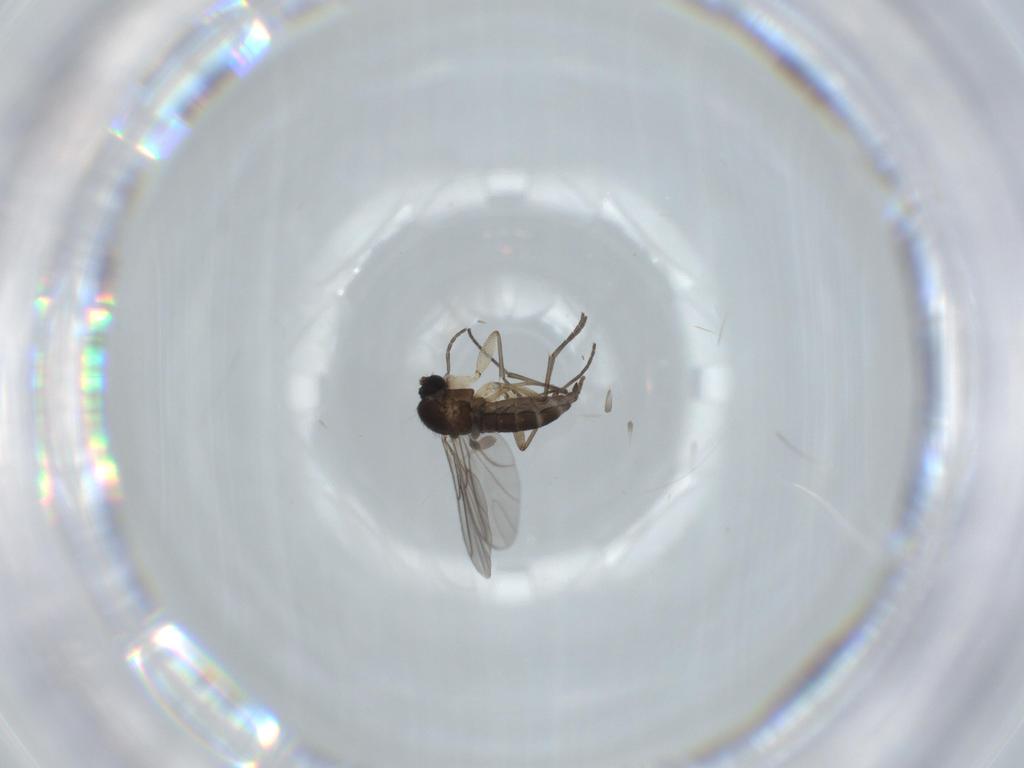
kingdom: Animalia
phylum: Arthropoda
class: Insecta
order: Diptera
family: Sciaridae
